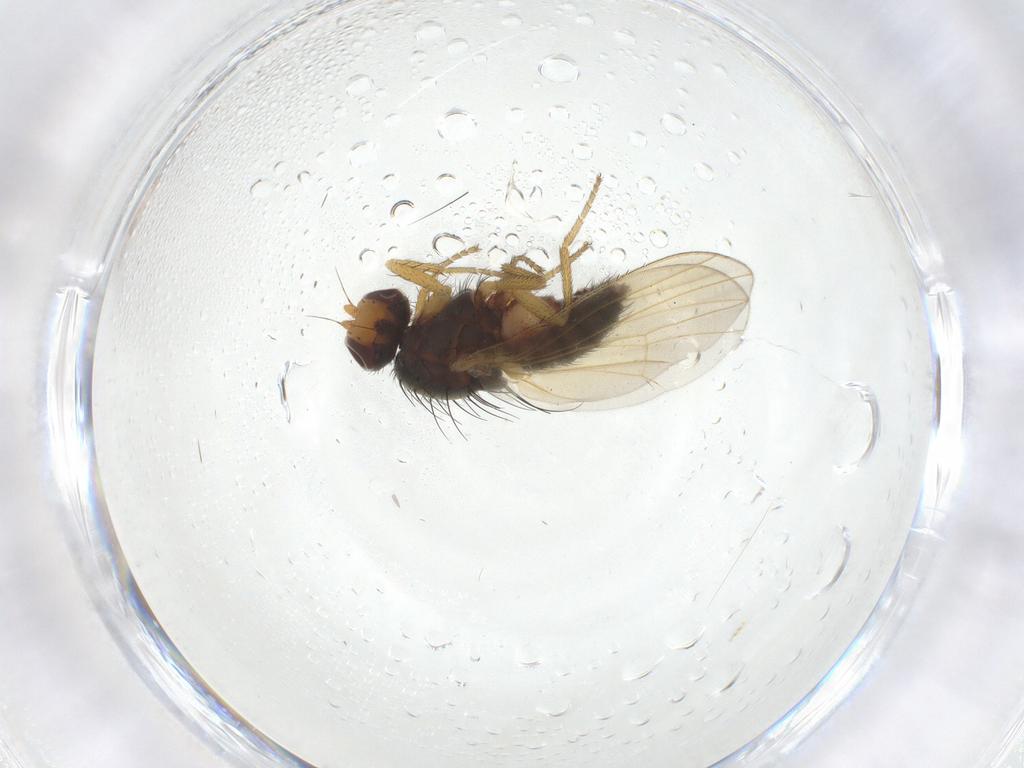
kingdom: Animalia
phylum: Arthropoda
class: Insecta
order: Diptera
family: Heleomyzidae
